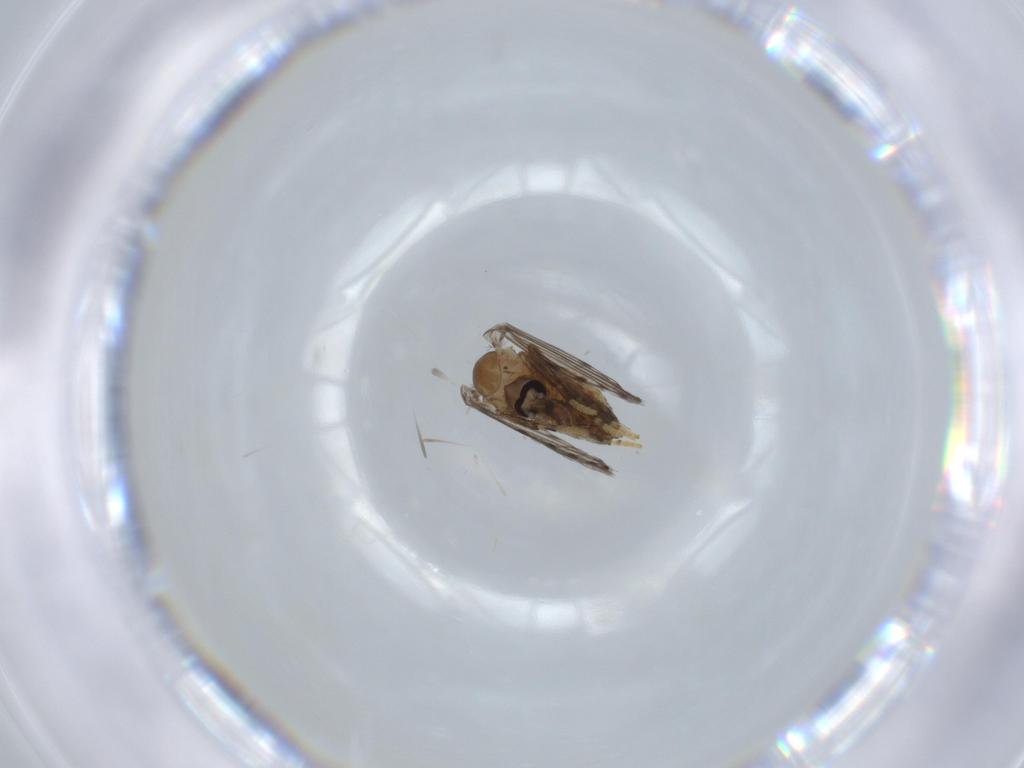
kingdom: Animalia
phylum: Arthropoda
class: Insecta
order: Diptera
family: Psychodidae
